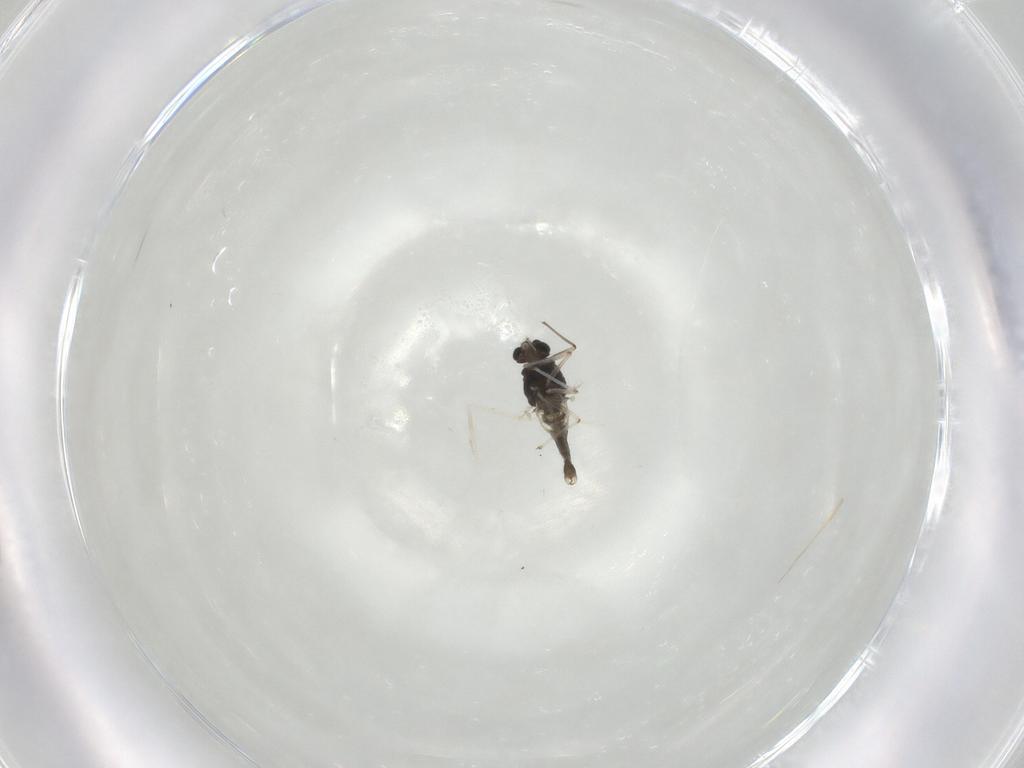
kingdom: Animalia
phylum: Arthropoda
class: Insecta
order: Diptera
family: Chironomidae
